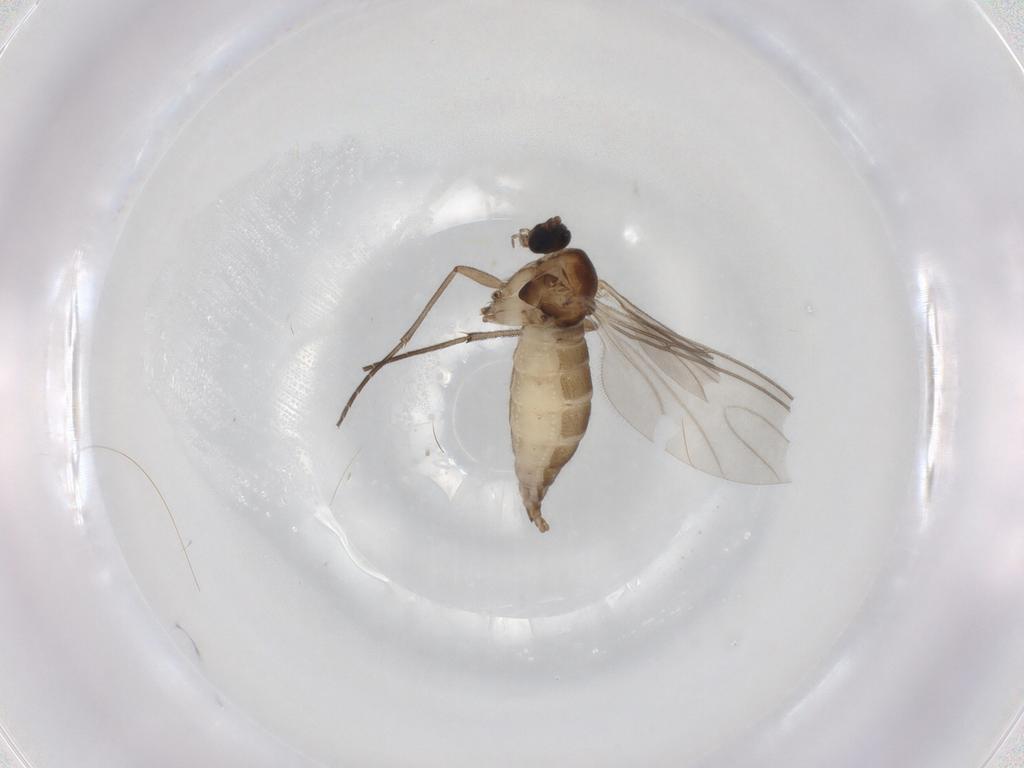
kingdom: Animalia
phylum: Arthropoda
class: Insecta
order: Diptera
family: Sciaridae
